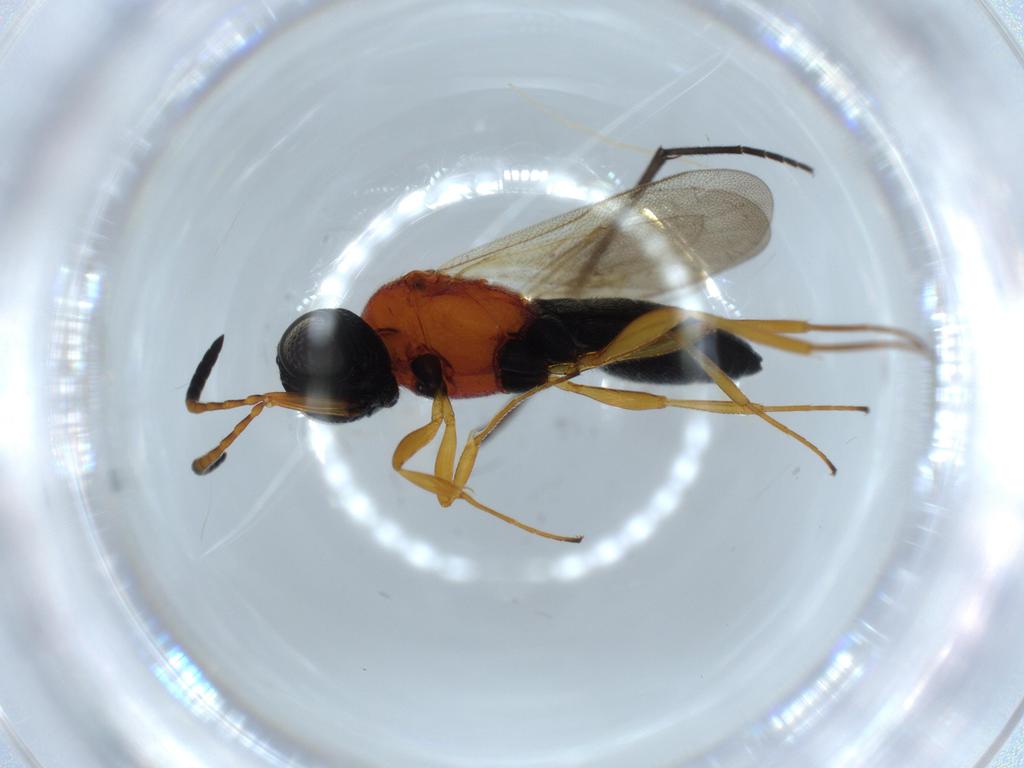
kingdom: Animalia
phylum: Arthropoda
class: Insecta
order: Hymenoptera
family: Scelionidae
